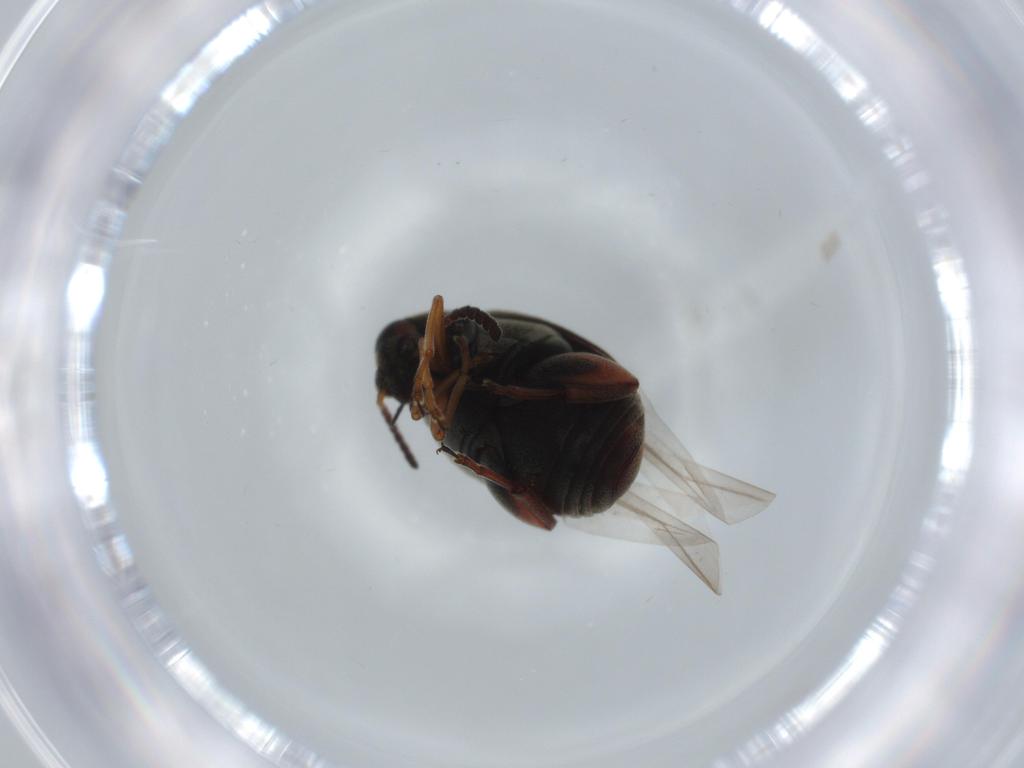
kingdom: Animalia
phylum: Arthropoda
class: Insecta
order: Coleoptera
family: Chrysomelidae
